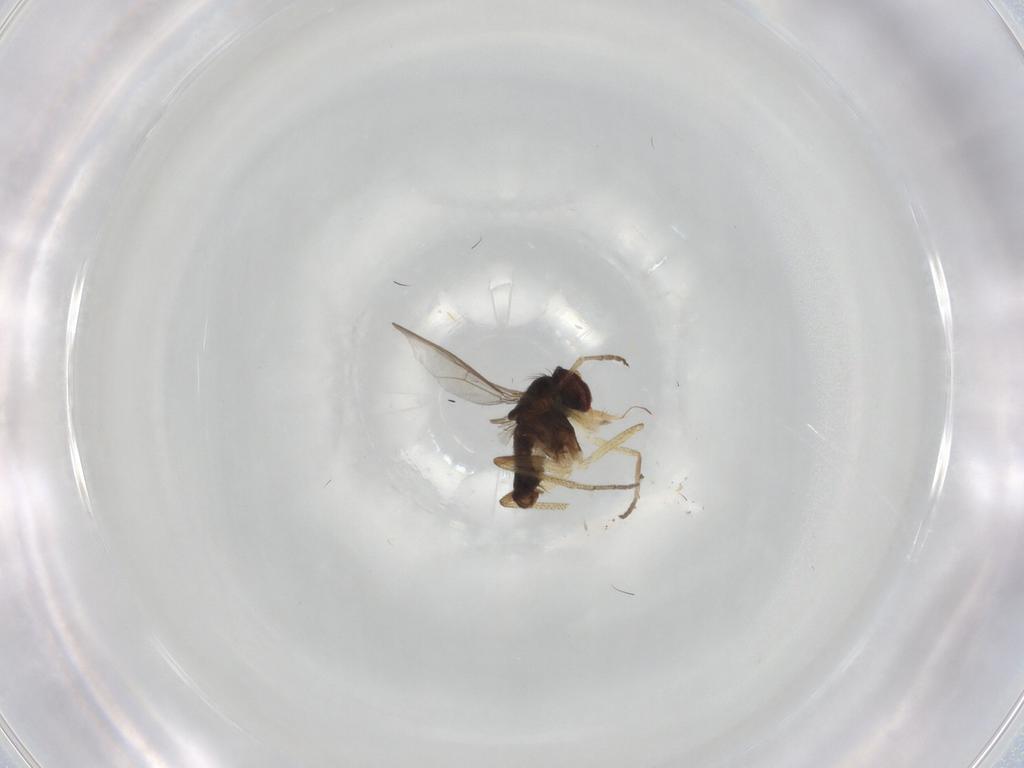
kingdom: Animalia
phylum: Arthropoda
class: Insecta
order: Diptera
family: Dolichopodidae
